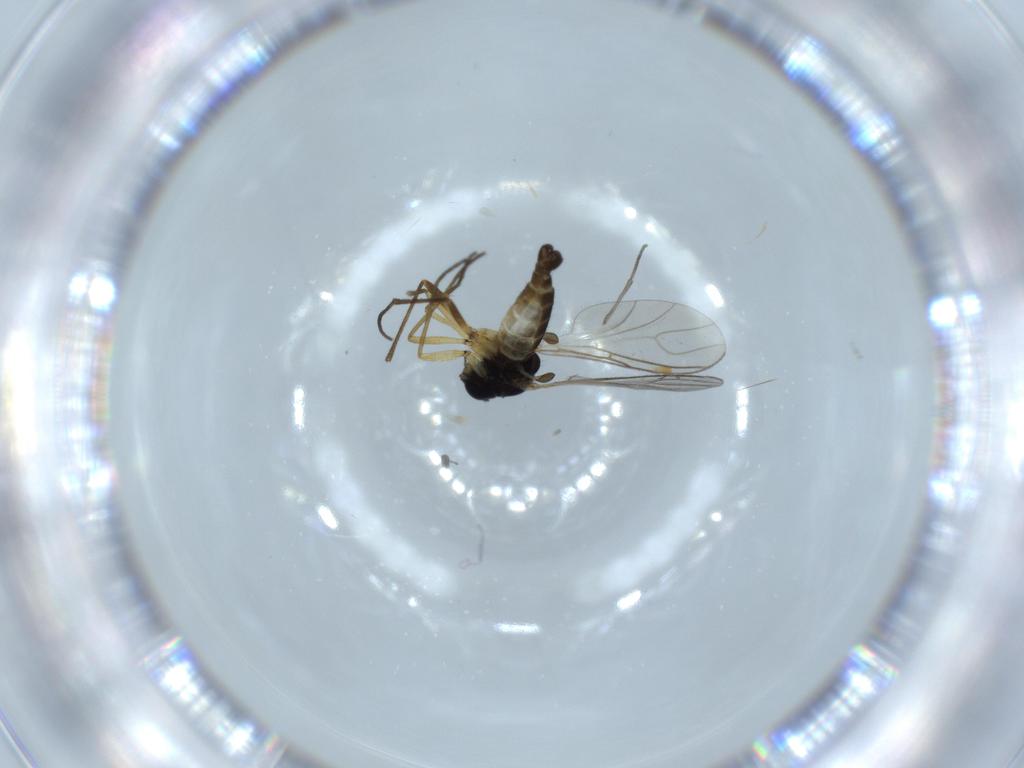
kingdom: Animalia
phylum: Arthropoda
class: Insecta
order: Diptera
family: Sciaridae
